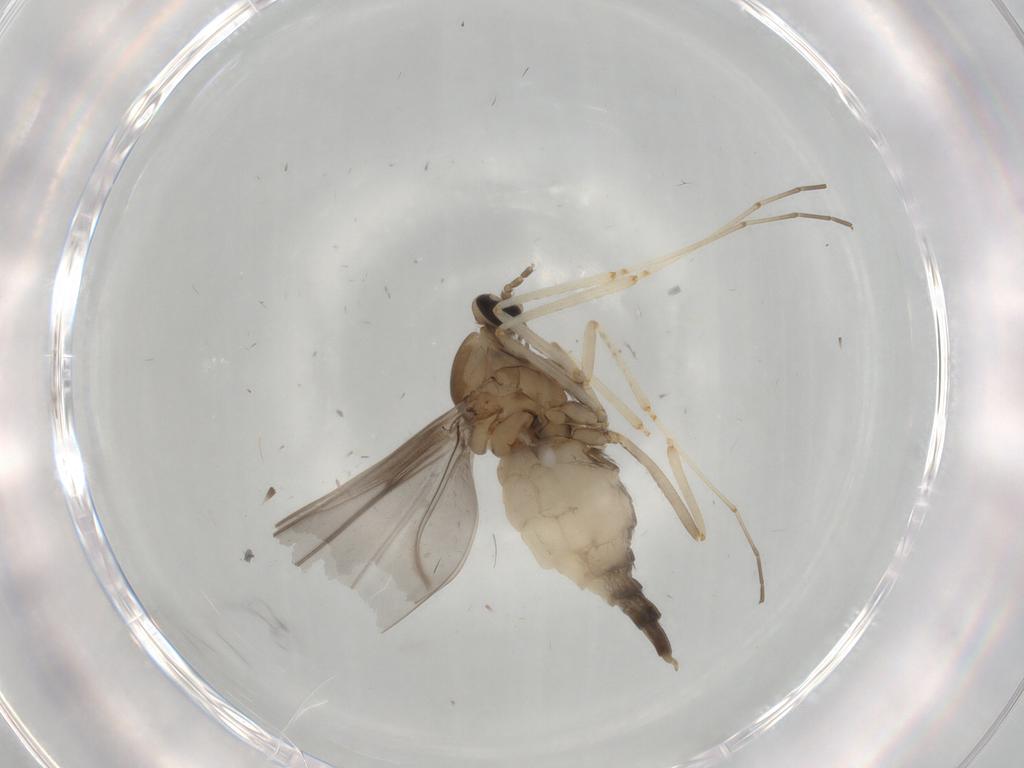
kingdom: Animalia
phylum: Arthropoda
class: Insecta
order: Diptera
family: Cecidomyiidae
